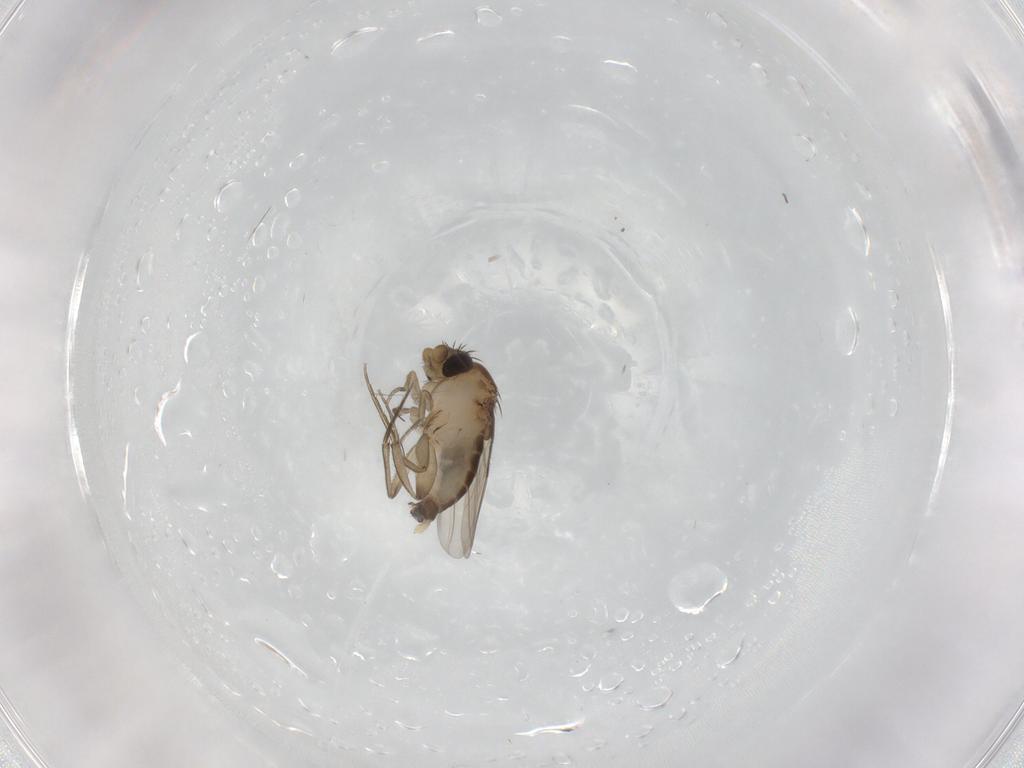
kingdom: Animalia
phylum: Arthropoda
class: Insecta
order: Diptera
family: Phoridae
